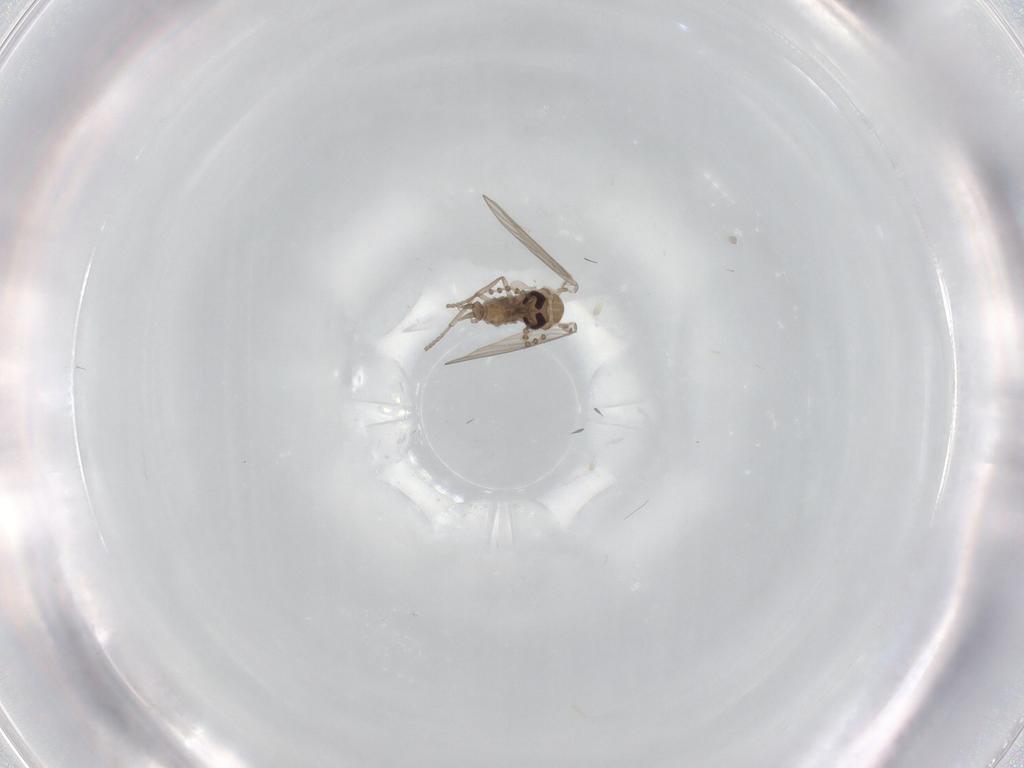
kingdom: Animalia
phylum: Arthropoda
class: Insecta
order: Diptera
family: Psychodidae
